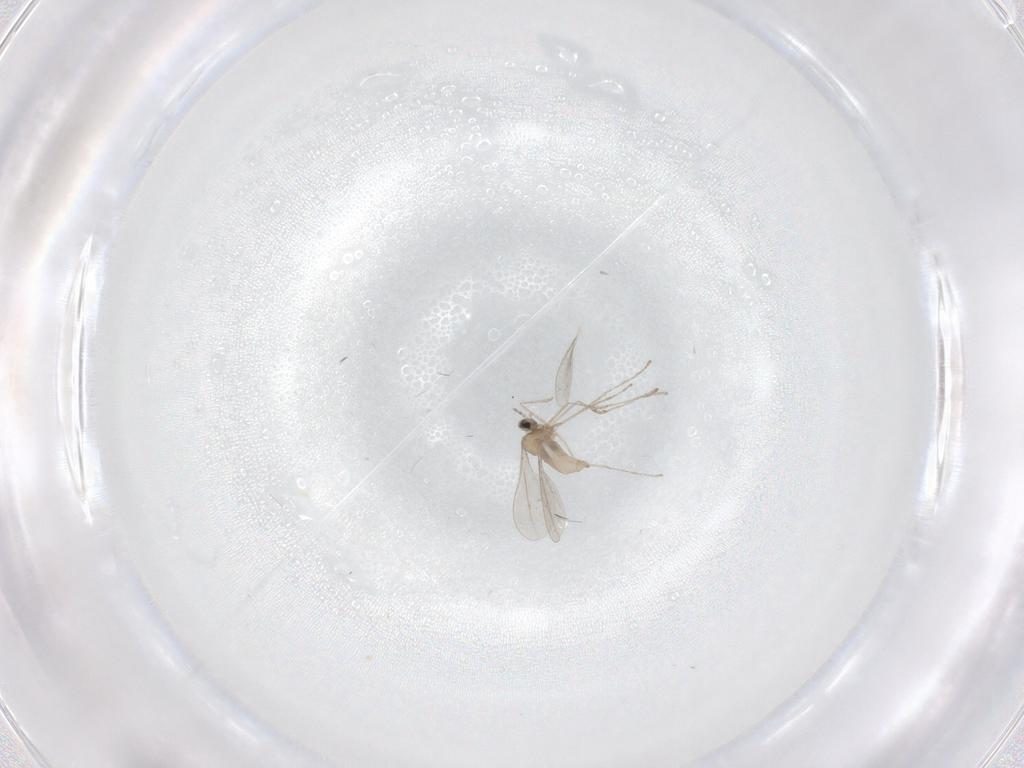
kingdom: Animalia
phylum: Arthropoda
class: Insecta
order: Diptera
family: Cecidomyiidae
